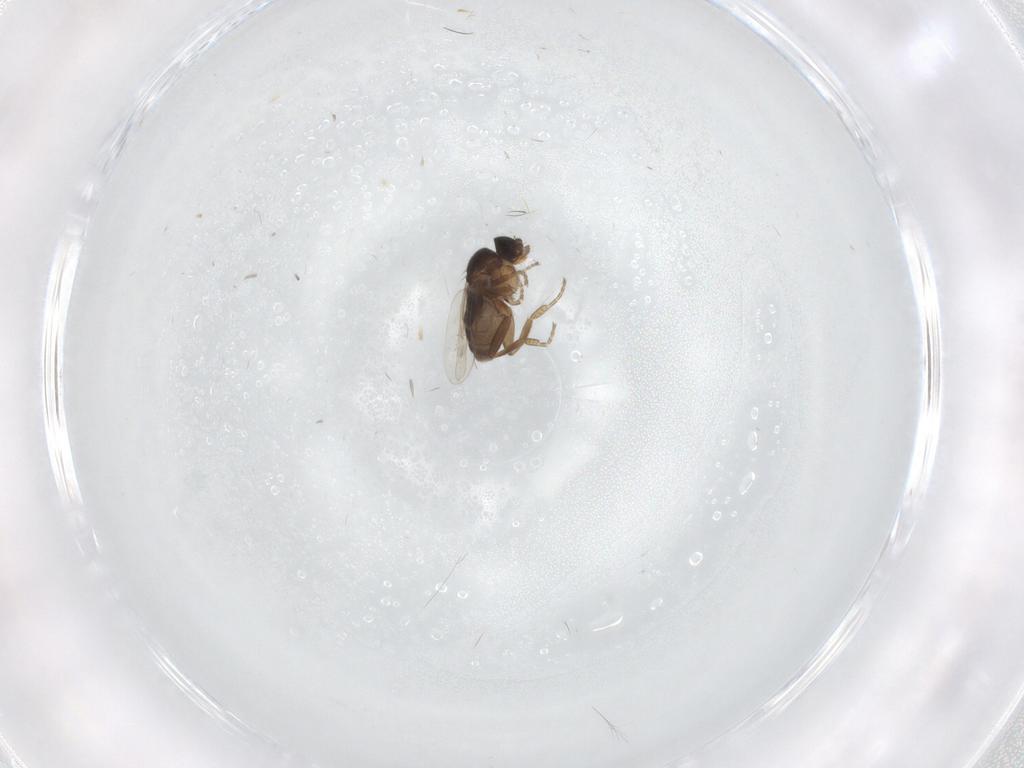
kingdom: Animalia
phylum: Arthropoda
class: Insecta
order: Diptera
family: Phoridae
